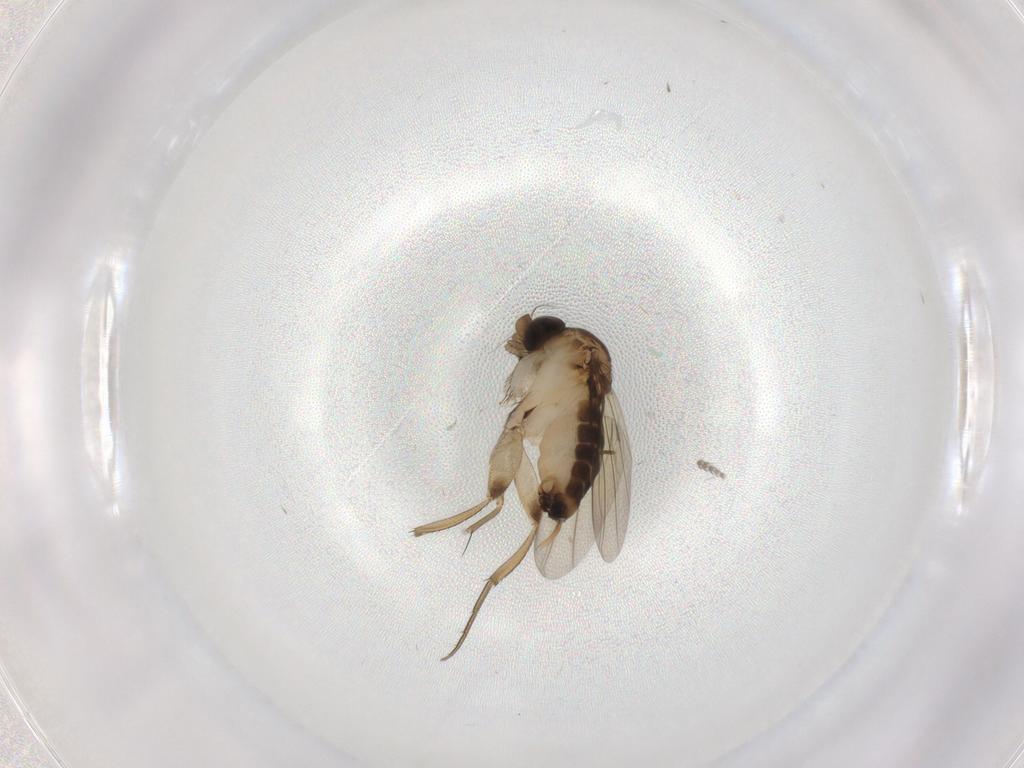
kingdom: Animalia
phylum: Arthropoda
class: Insecta
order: Diptera
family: Phoridae
